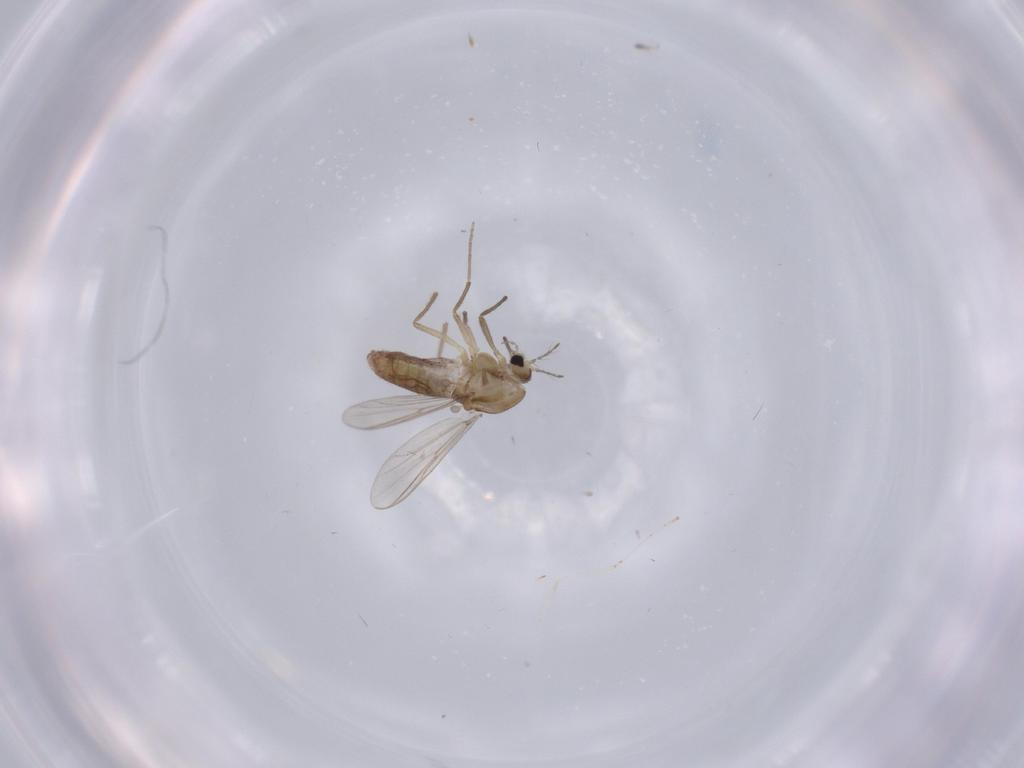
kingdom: Animalia
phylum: Arthropoda
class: Insecta
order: Diptera
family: Chironomidae
